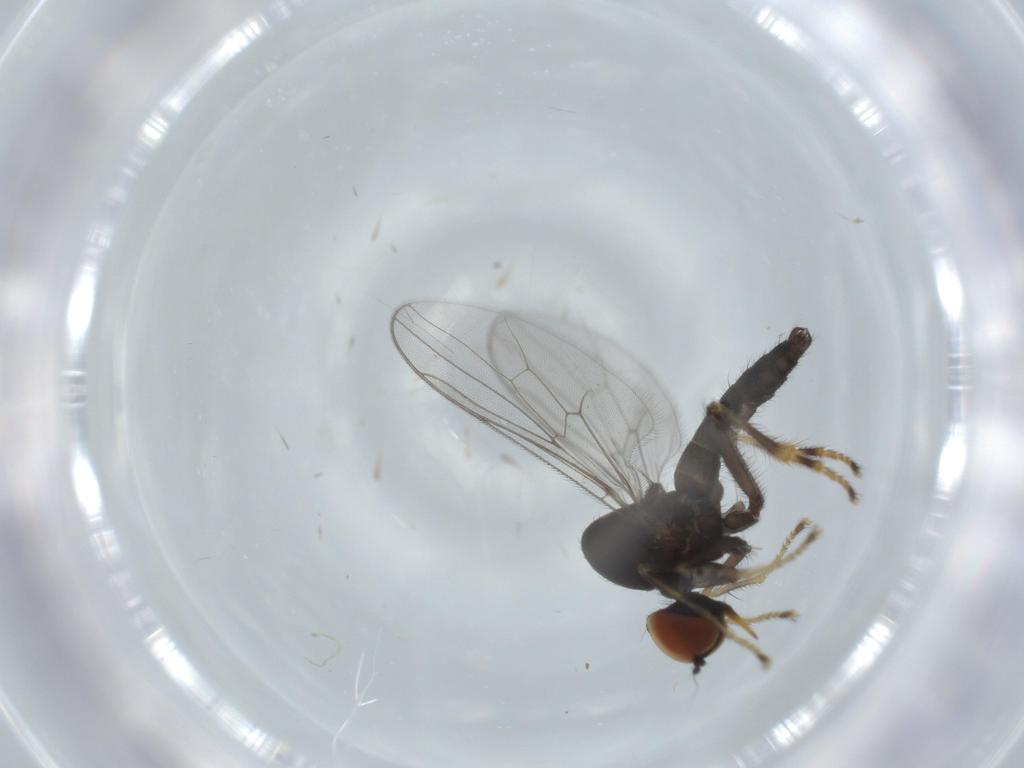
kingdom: Animalia
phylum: Arthropoda
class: Insecta
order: Diptera
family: Hybotidae
